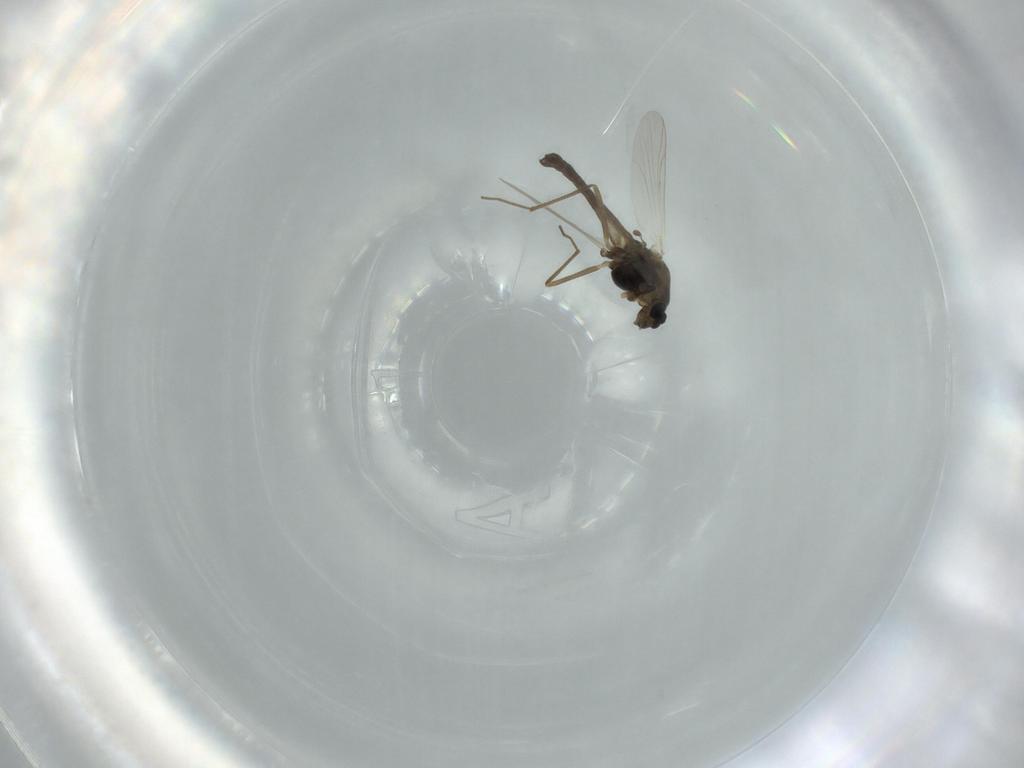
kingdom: Animalia
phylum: Arthropoda
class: Insecta
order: Diptera
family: Chironomidae
